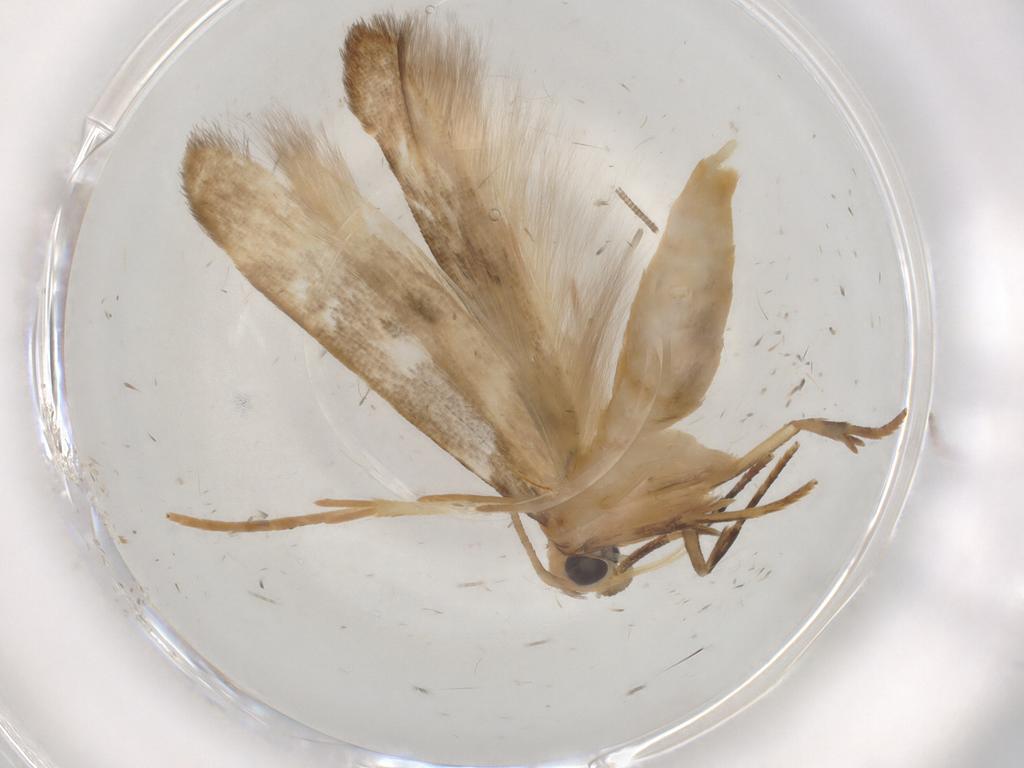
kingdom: Animalia
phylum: Arthropoda
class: Insecta
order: Lepidoptera
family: Nolidae
